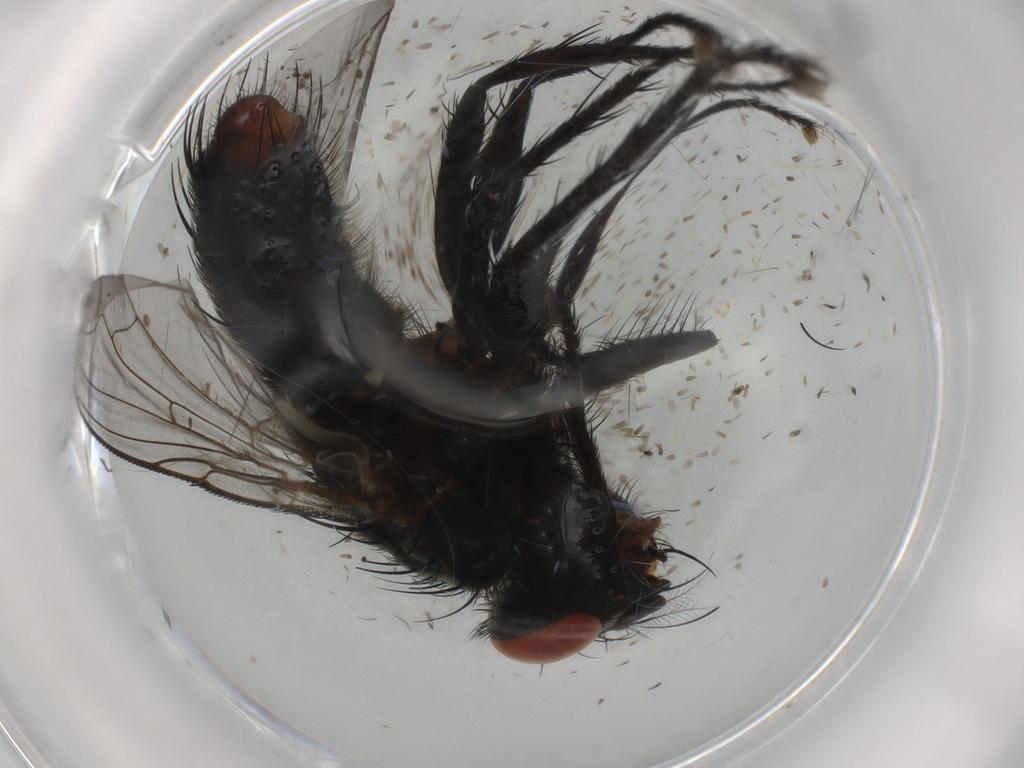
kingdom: Animalia
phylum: Arthropoda
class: Insecta
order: Diptera
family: Sarcophagidae
